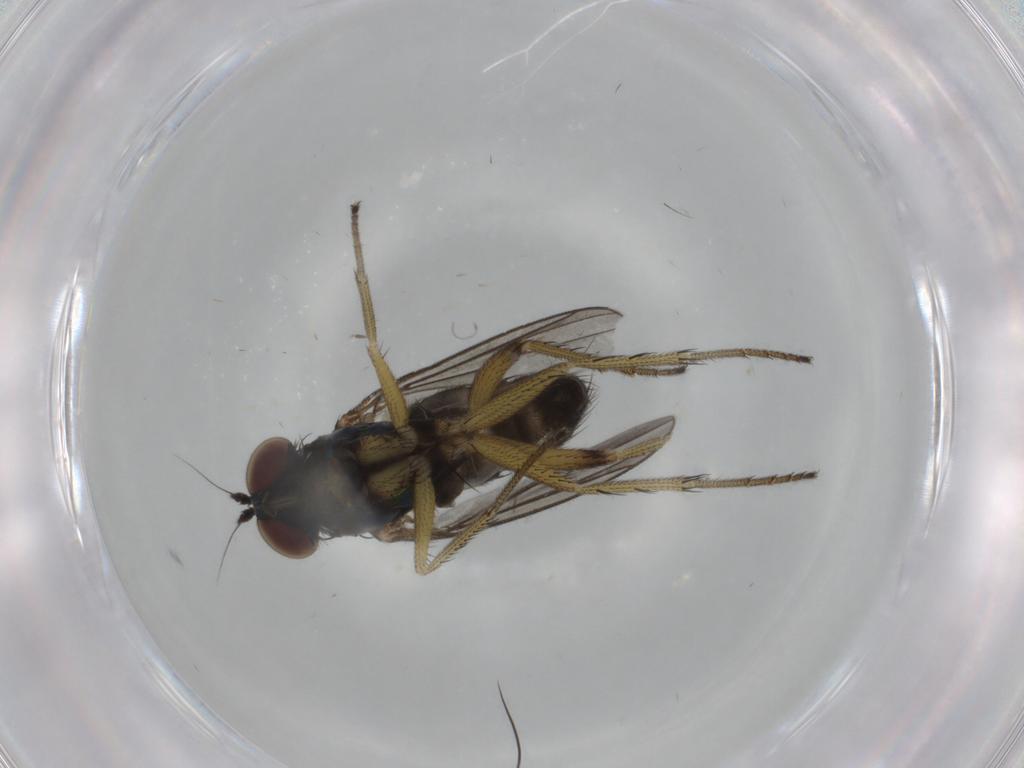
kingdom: Animalia
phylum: Arthropoda
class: Insecta
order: Diptera
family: Dolichopodidae
